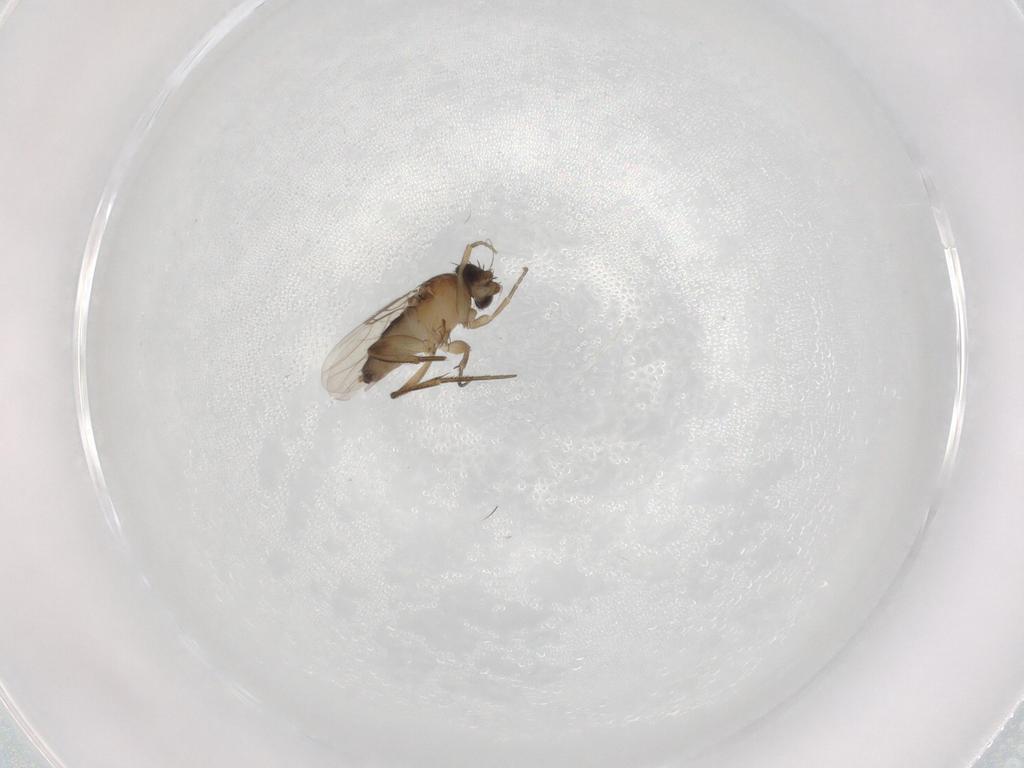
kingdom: Animalia
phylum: Arthropoda
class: Insecta
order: Diptera
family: Phoridae
